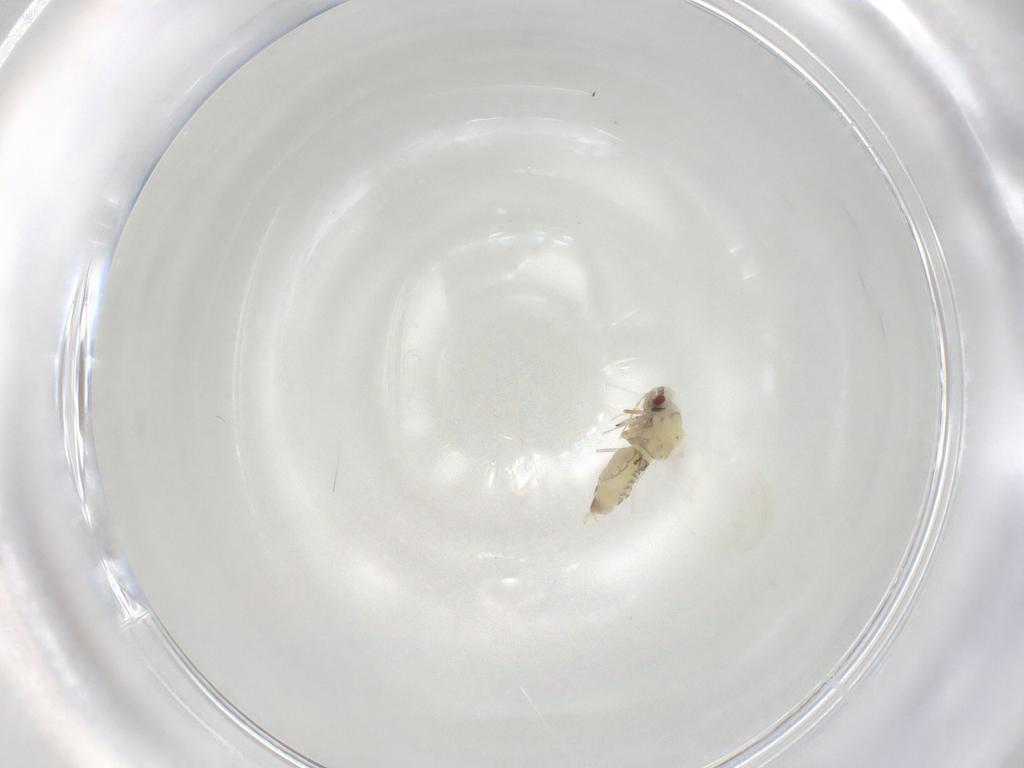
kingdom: Animalia
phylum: Arthropoda
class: Insecta
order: Hemiptera
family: Aleyrodidae
